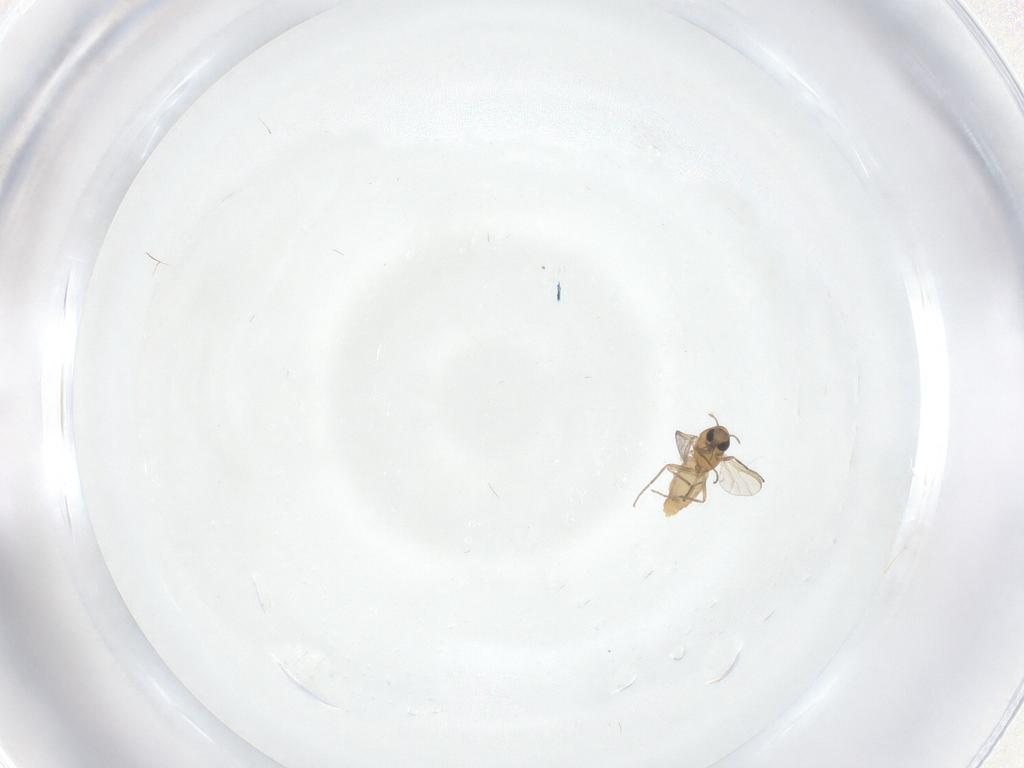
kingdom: Animalia
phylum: Arthropoda
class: Insecta
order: Diptera
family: Chironomidae
